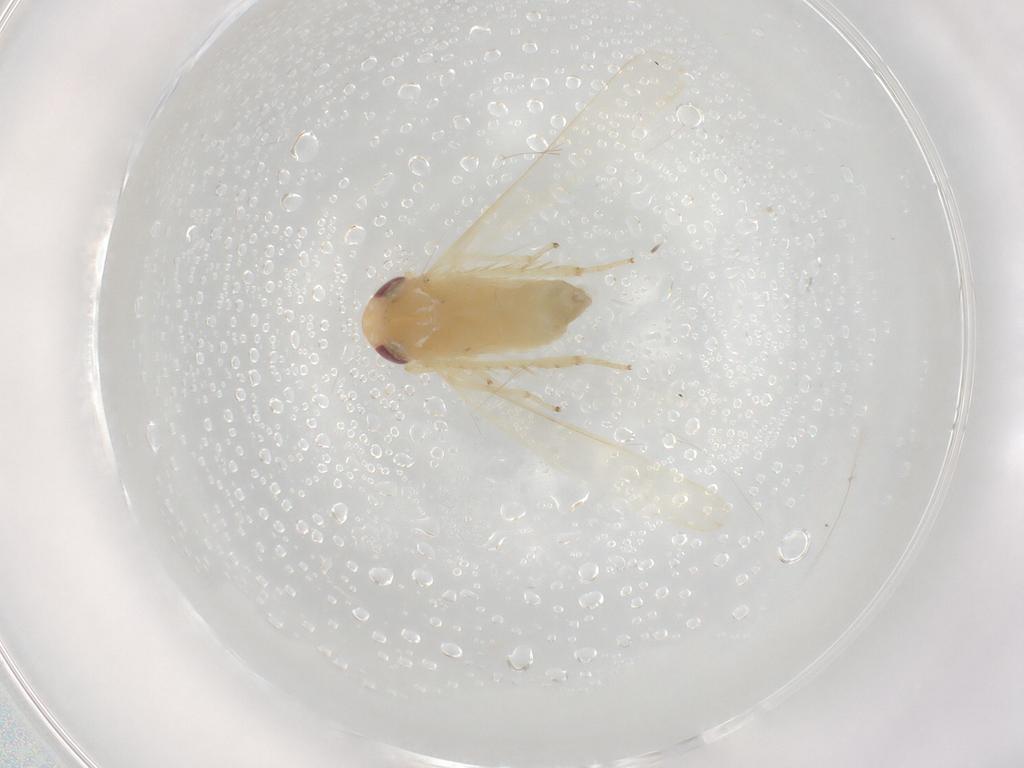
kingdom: Animalia
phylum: Arthropoda
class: Insecta
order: Hemiptera
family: Cicadellidae
